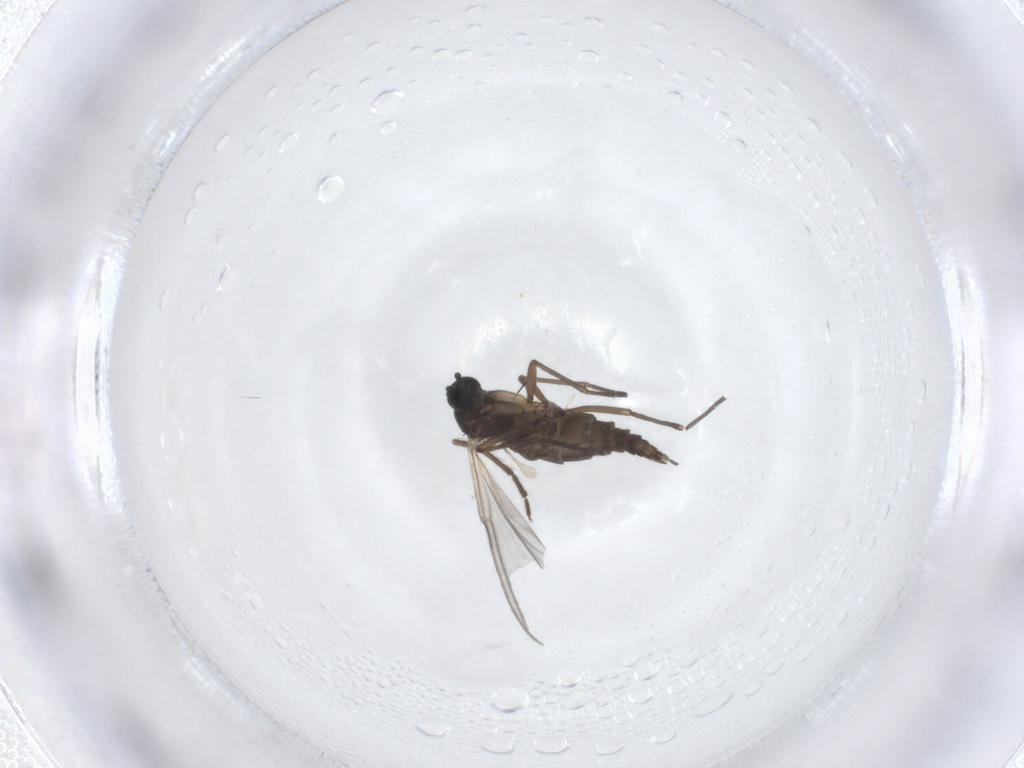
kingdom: Animalia
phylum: Arthropoda
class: Insecta
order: Diptera
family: Sciaridae
